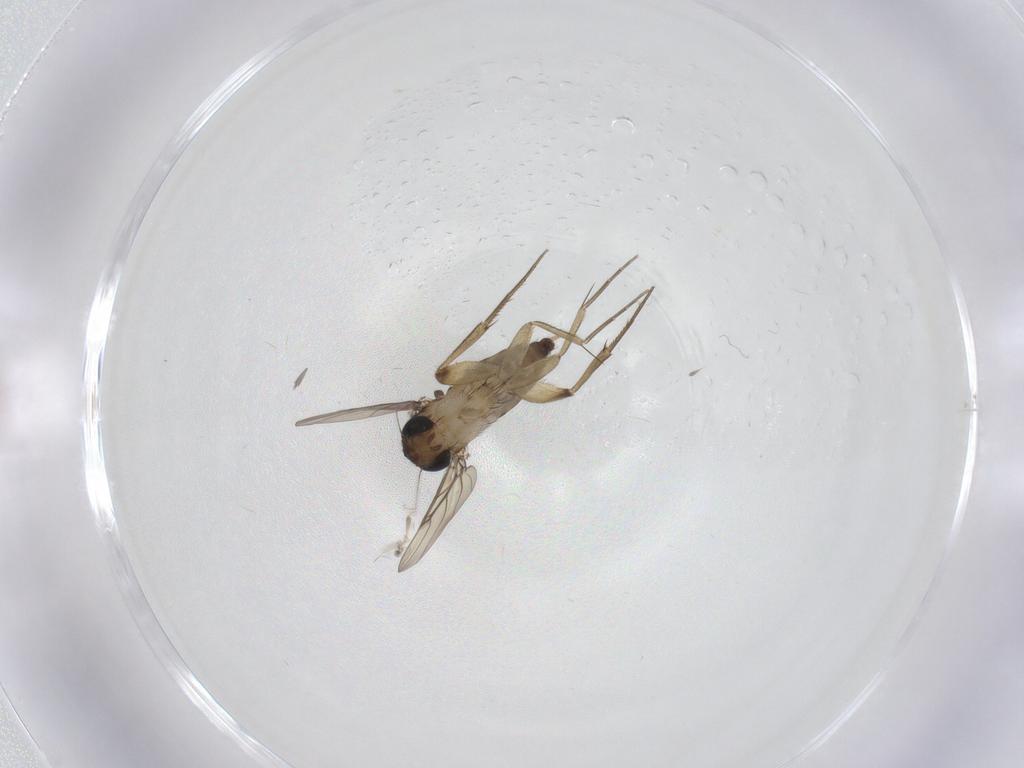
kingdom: Animalia
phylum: Arthropoda
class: Insecta
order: Diptera
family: Phoridae
